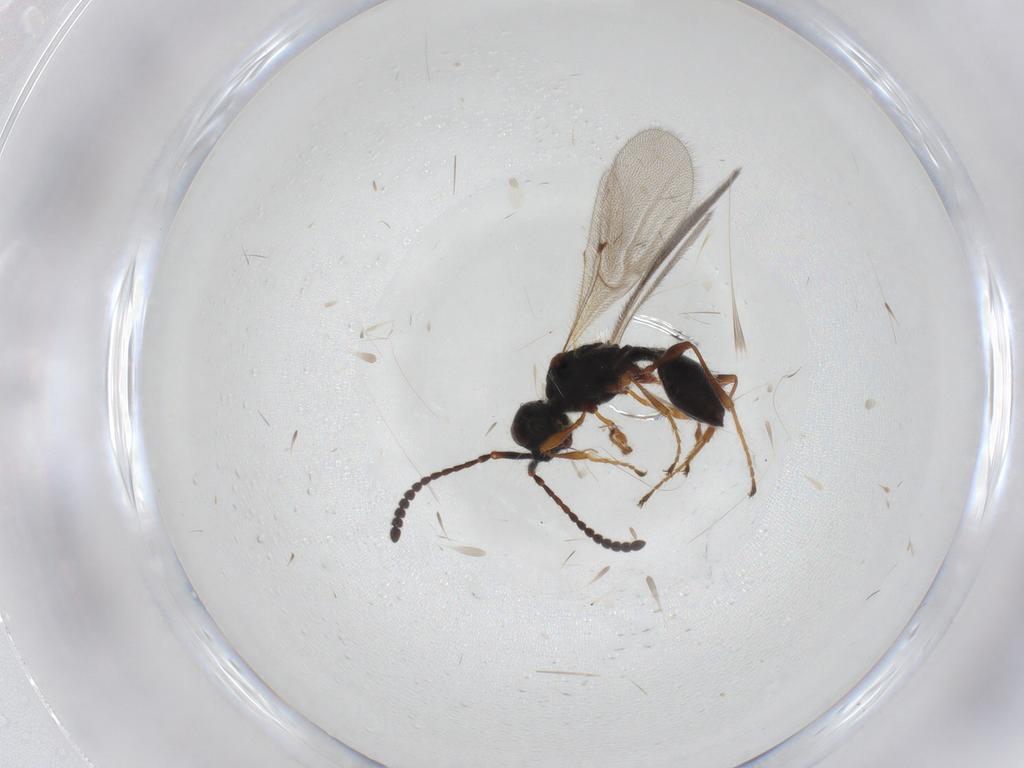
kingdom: Animalia
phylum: Arthropoda
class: Insecta
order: Hymenoptera
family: Diapriidae
